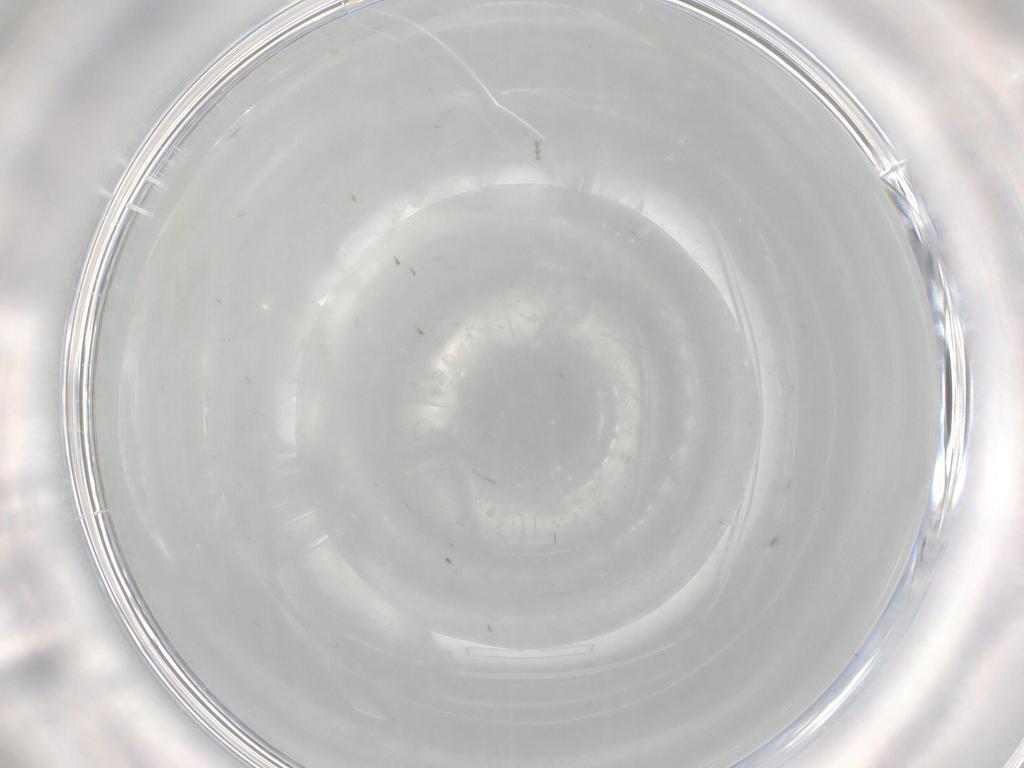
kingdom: Animalia
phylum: Arthropoda
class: Insecta
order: Diptera
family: Cecidomyiidae
